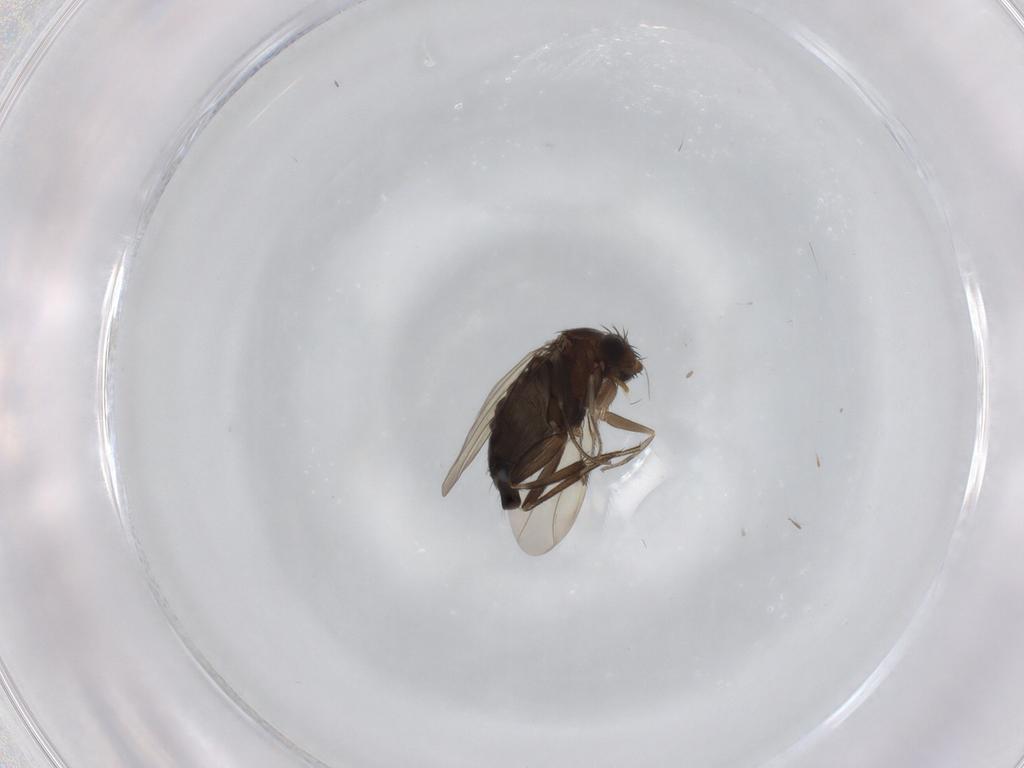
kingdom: Animalia
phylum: Arthropoda
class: Insecta
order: Diptera
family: Phoridae
